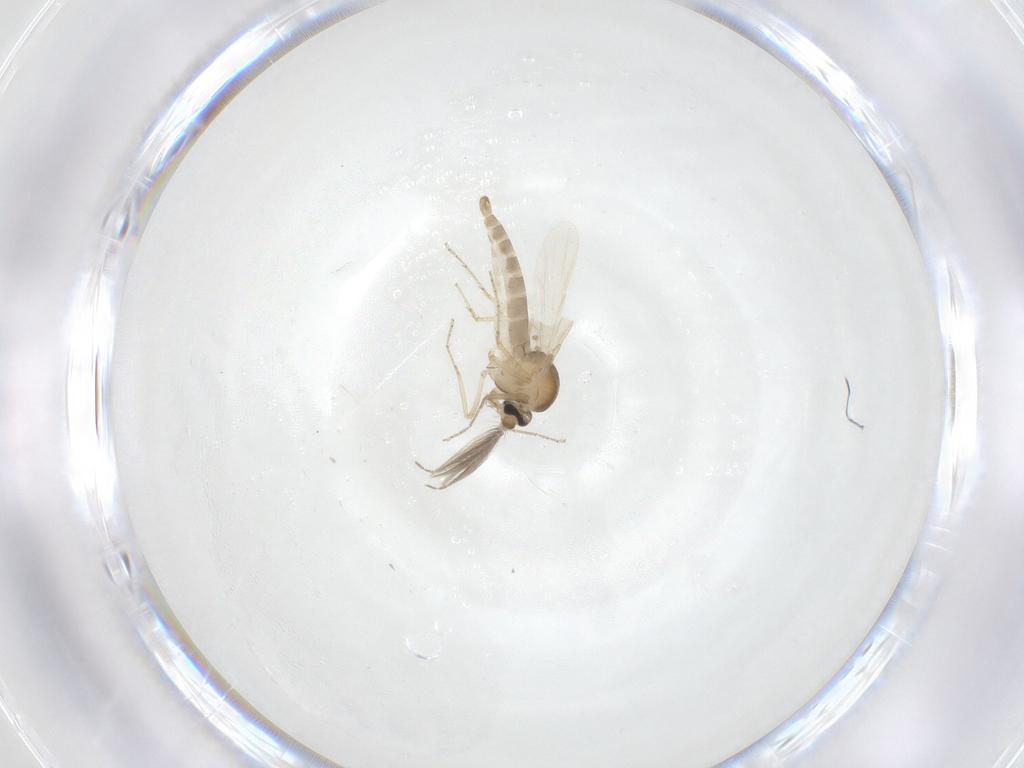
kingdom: Animalia
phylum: Arthropoda
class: Insecta
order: Diptera
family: Ceratopogonidae
